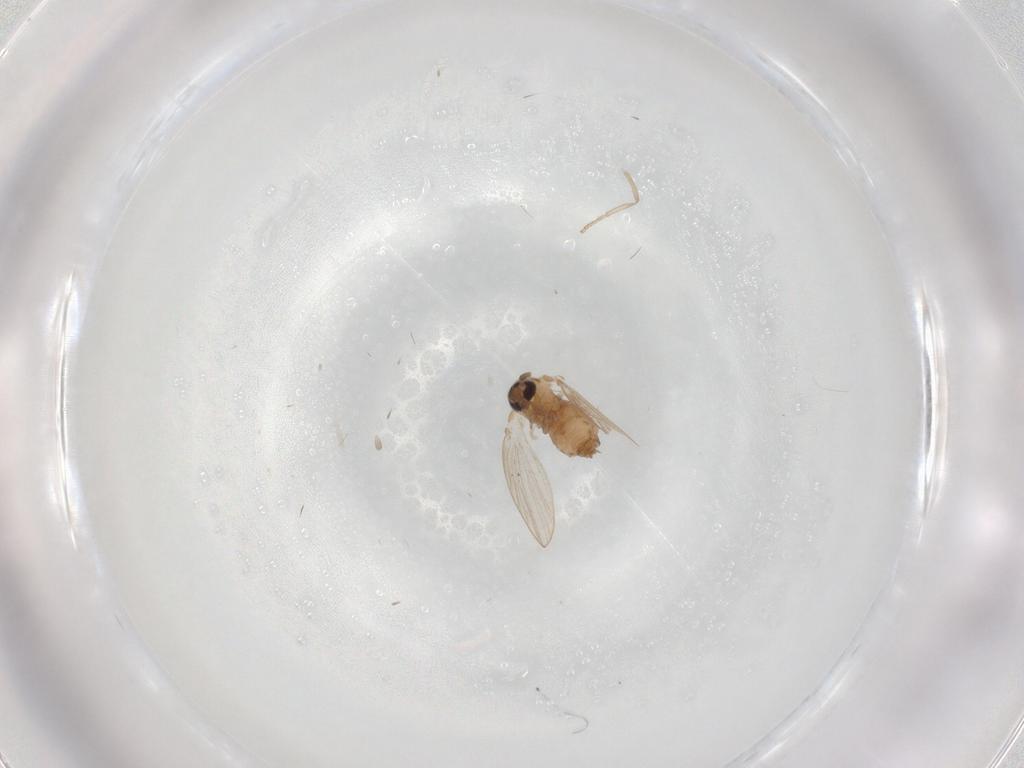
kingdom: Animalia
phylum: Arthropoda
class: Insecta
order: Diptera
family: Psychodidae
